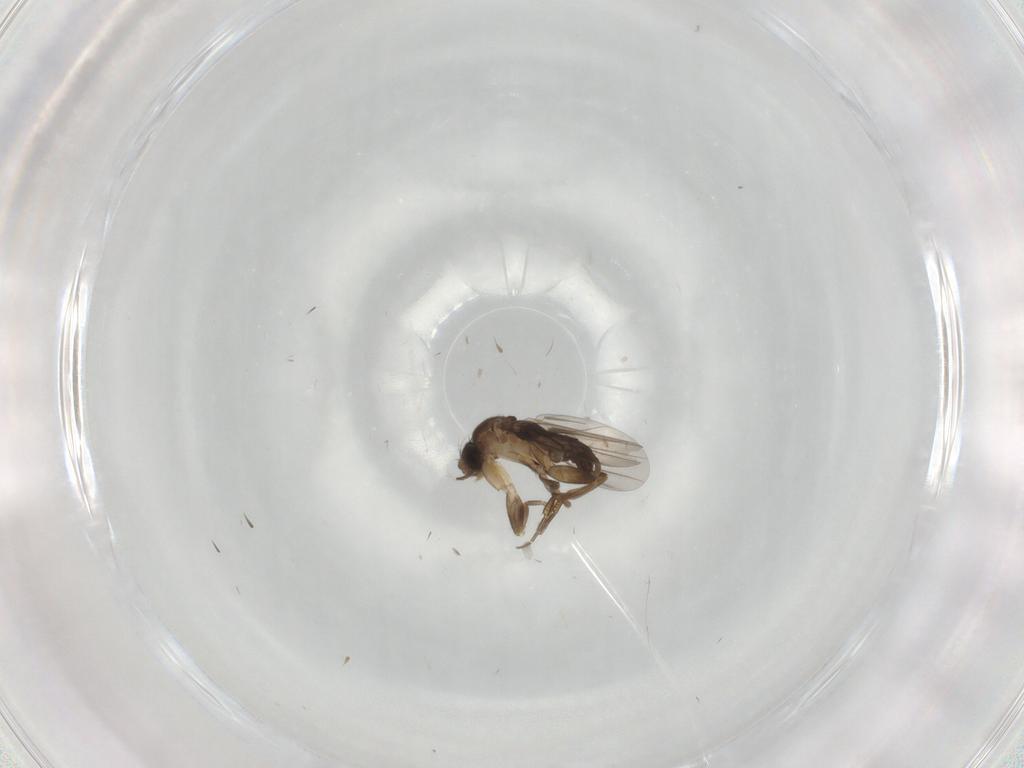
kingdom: Animalia
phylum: Arthropoda
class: Insecta
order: Diptera
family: Phoridae
